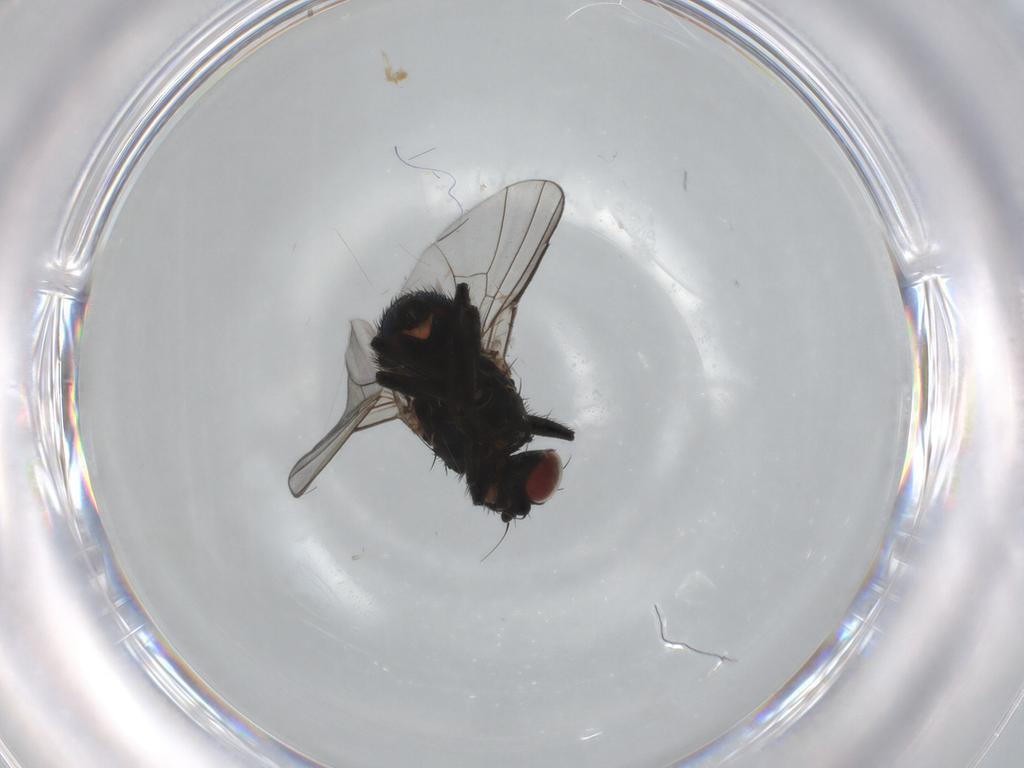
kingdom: Animalia
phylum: Arthropoda
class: Insecta
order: Diptera
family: Agromyzidae
